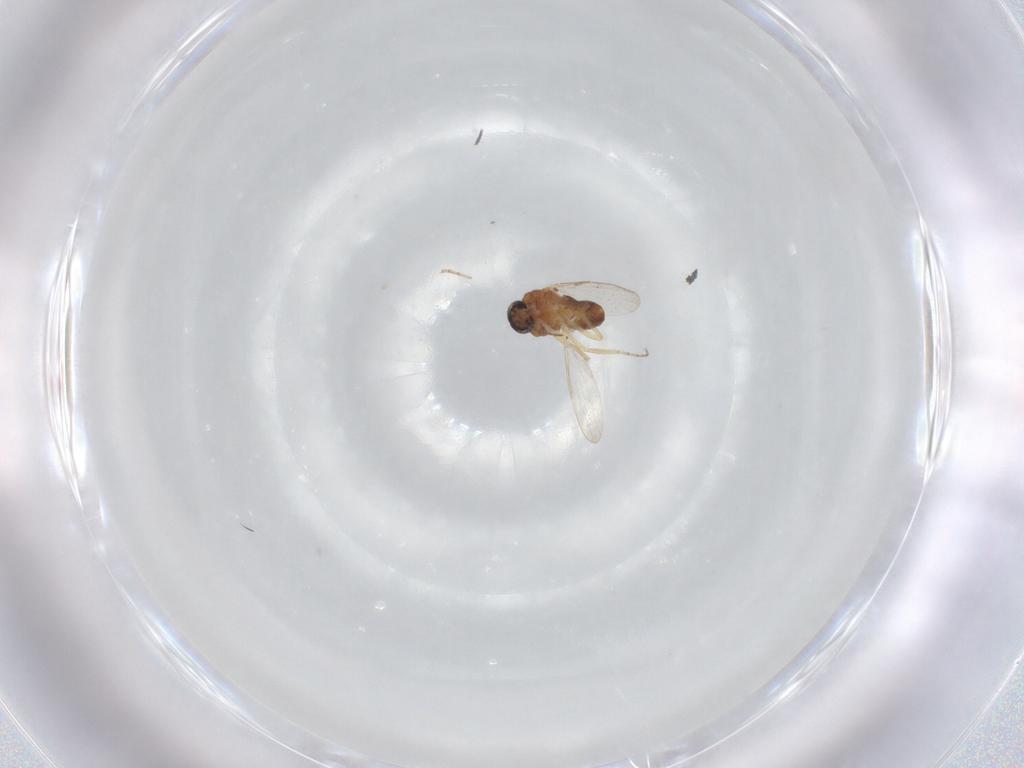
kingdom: Animalia
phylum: Arthropoda
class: Insecta
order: Diptera
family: Ceratopogonidae
